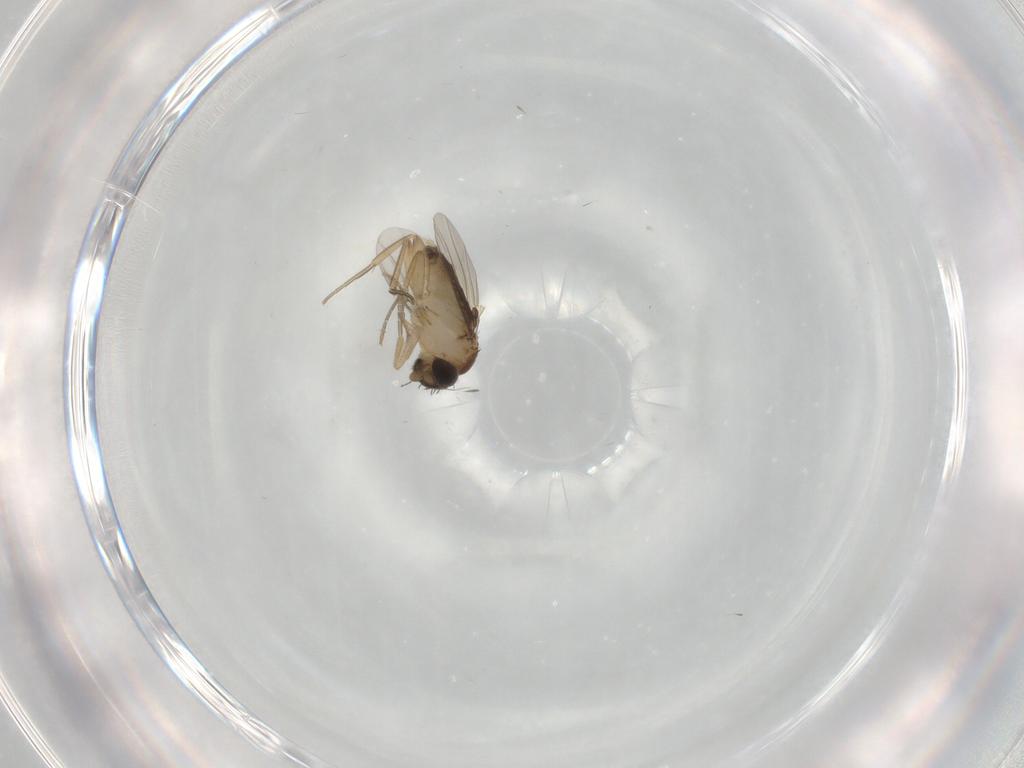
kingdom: Animalia
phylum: Arthropoda
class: Insecta
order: Diptera
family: Phoridae
